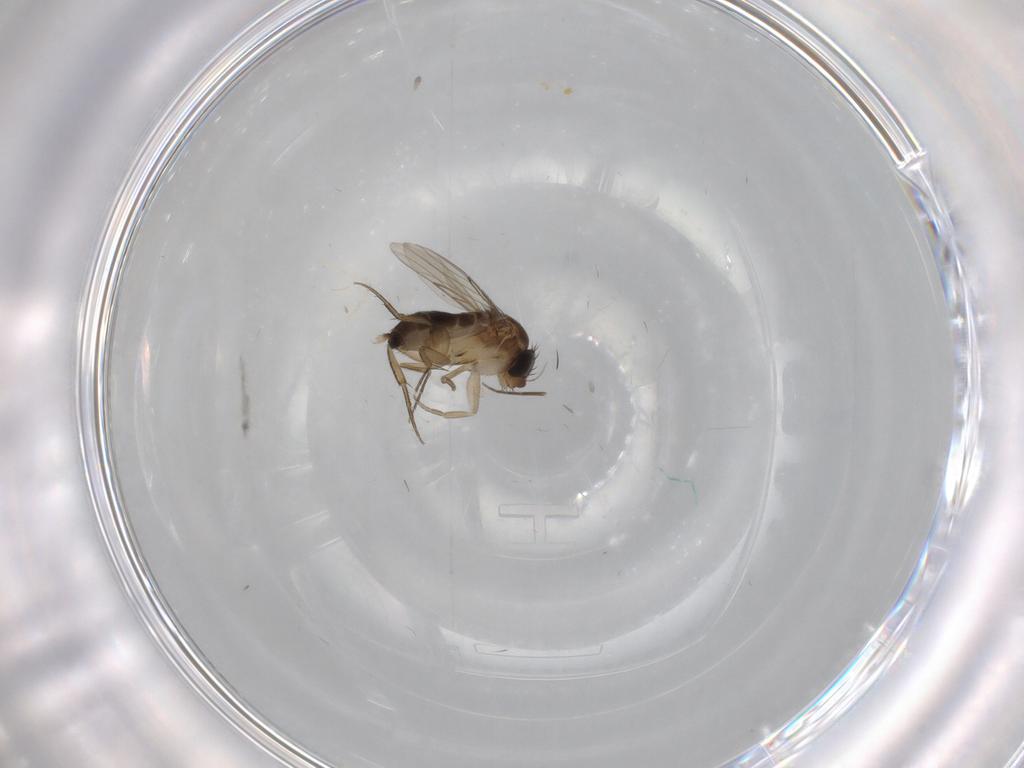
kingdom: Animalia
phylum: Arthropoda
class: Insecta
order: Diptera
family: Phoridae
